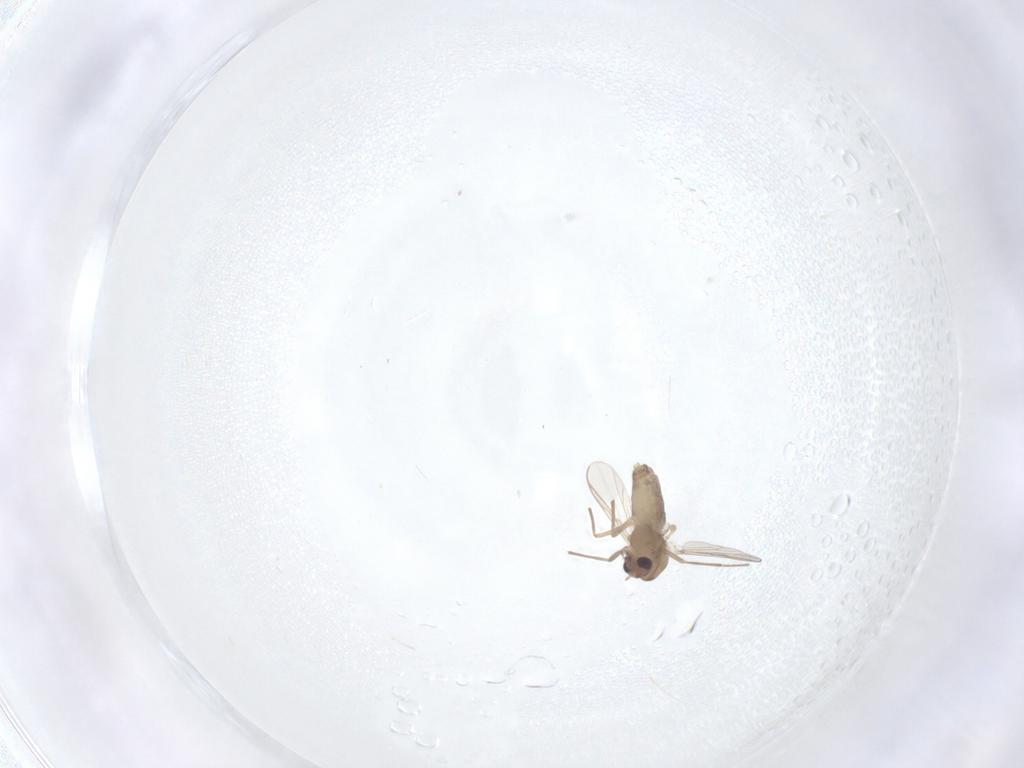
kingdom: Animalia
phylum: Arthropoda
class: Insecta
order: Diptera
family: Chironomidae
